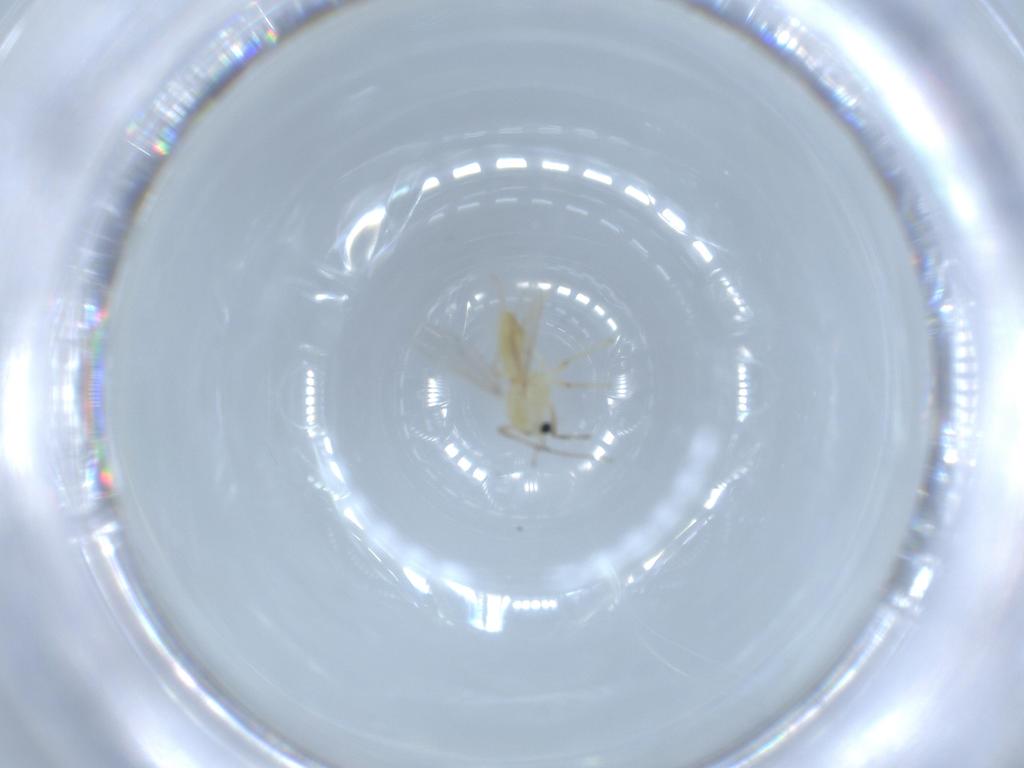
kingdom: Animalia
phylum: Arthropoda
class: Insecta
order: Diptera
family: Chironomidae
